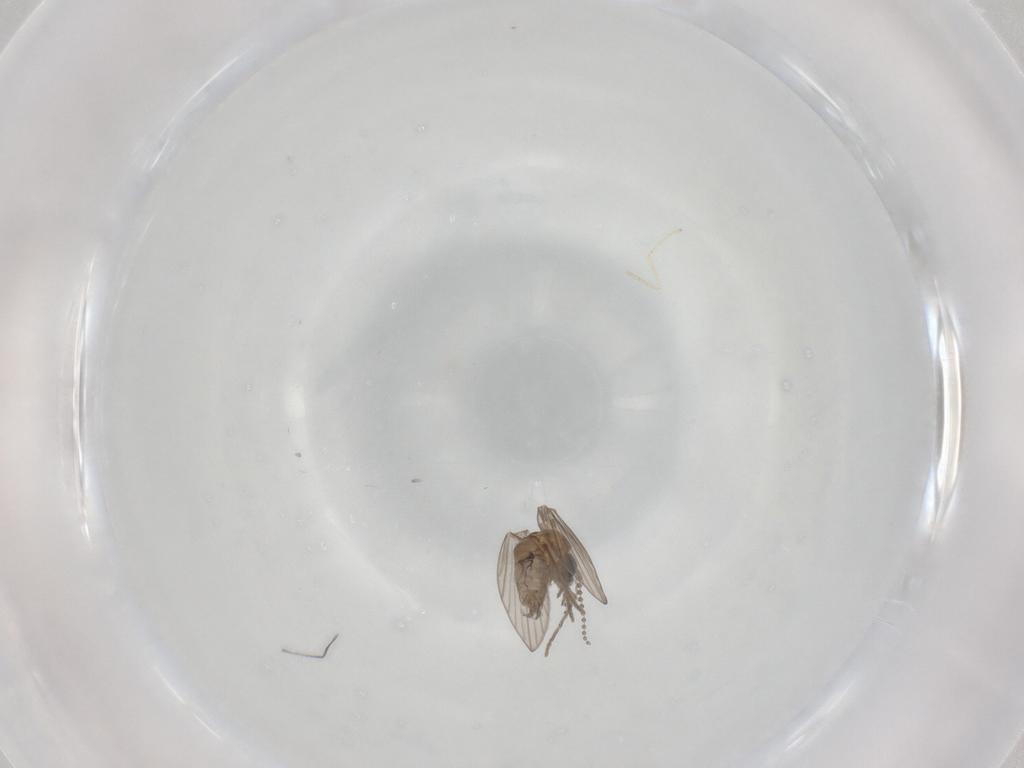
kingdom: Animalia
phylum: Arthropoda
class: Insecta
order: Diptera
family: Psychodidae
